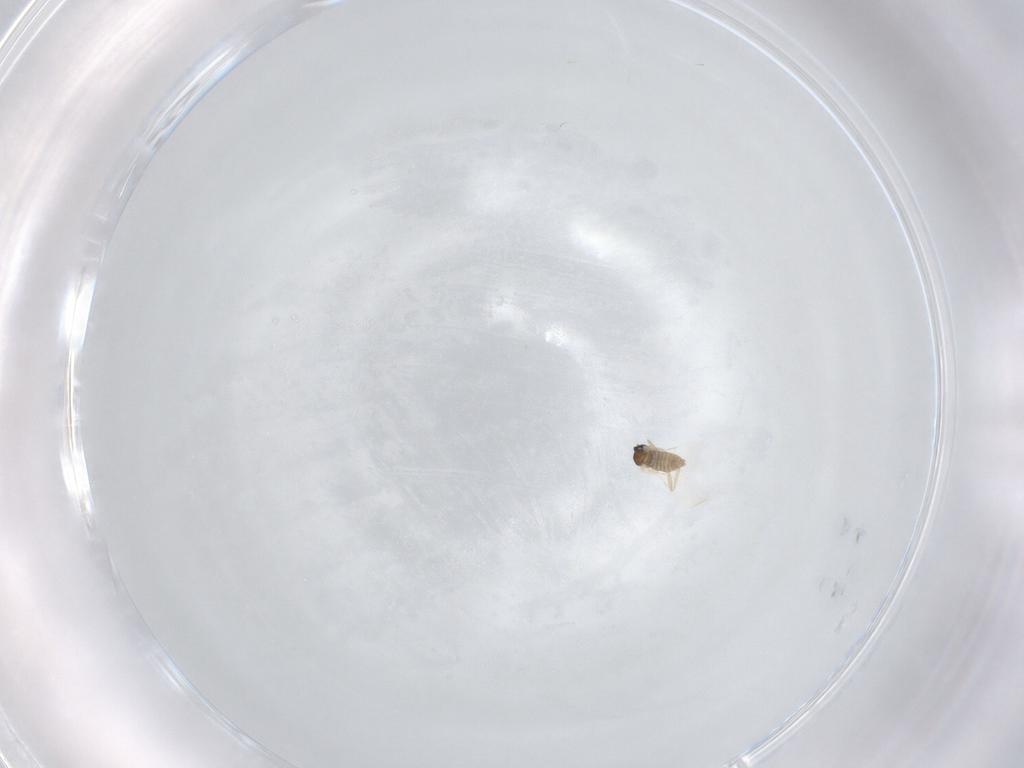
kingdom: Animalia
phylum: Arthropoda
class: Insecta
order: Diptera
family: Cecidomyiidae
